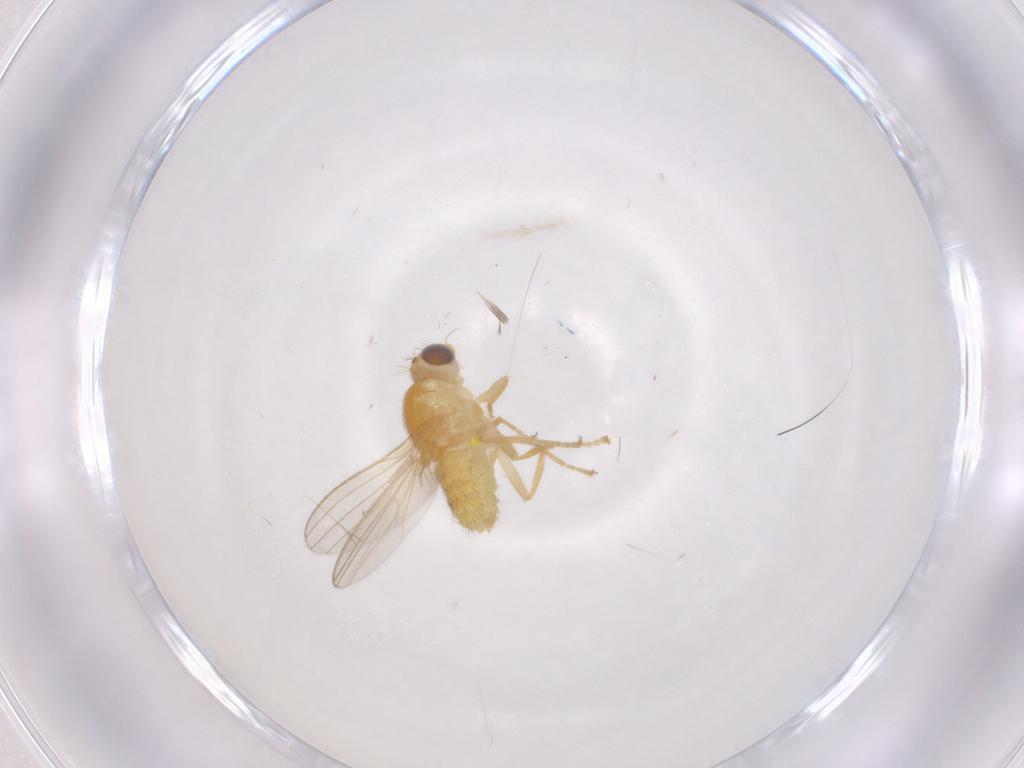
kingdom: Animalia
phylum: Arthropoda
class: Insecta
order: Diptera
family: Chyromyidae
